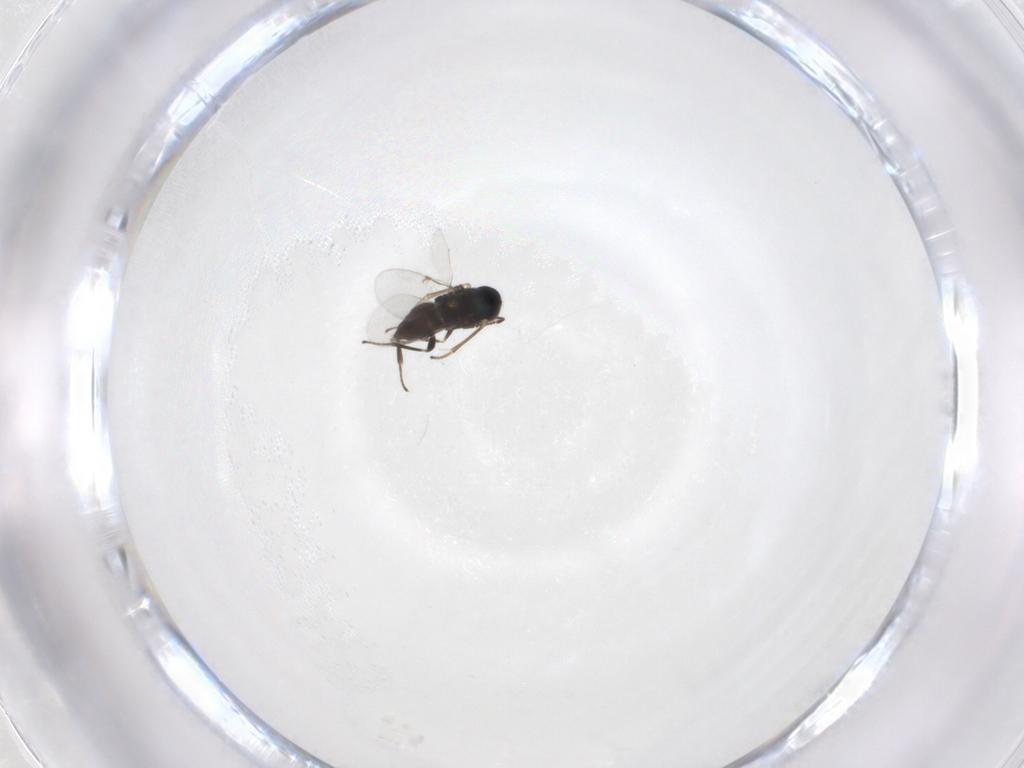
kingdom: Animalia
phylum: Arthropoda
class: Insecta
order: Hymenoptera
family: Encyrtidae
